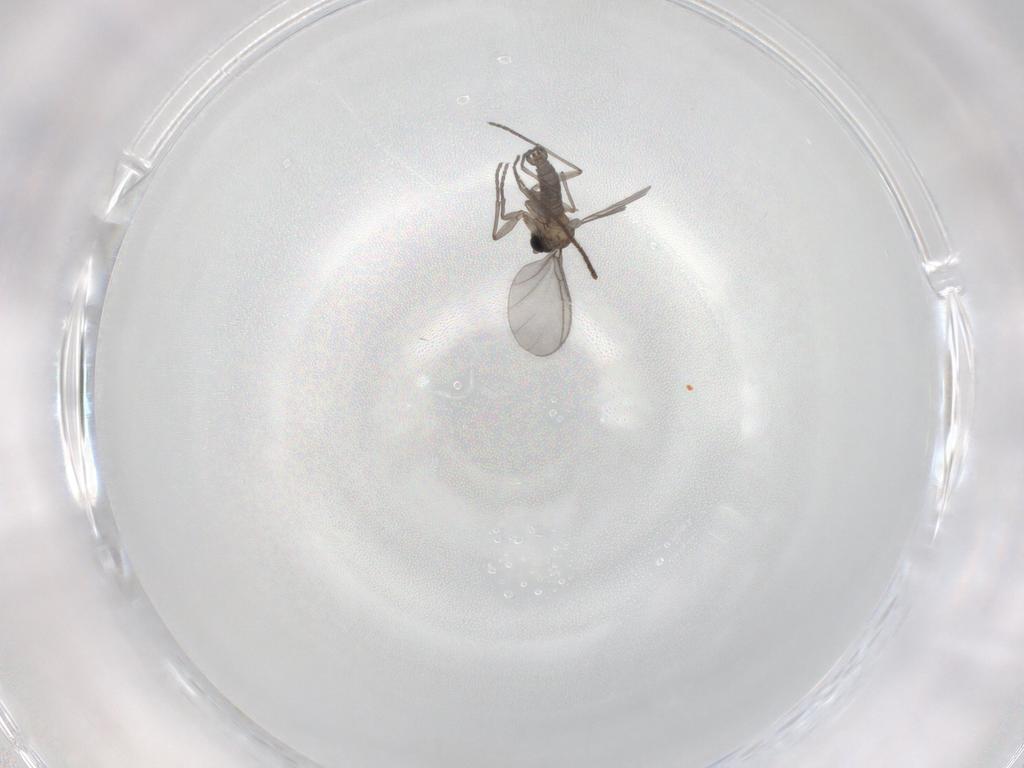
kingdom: Animalia
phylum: Arthropoda
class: Insecta
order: Diptera
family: Sciaridae
